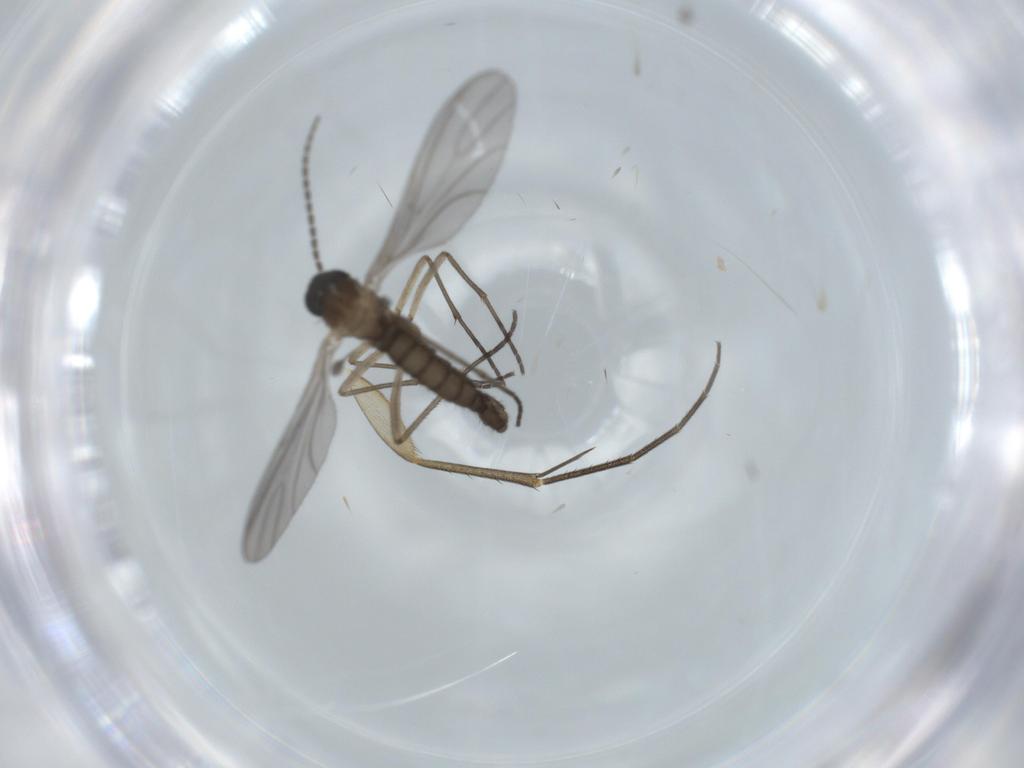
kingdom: Animalia
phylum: Arthropoda
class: Insecta
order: Diptera
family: Sciaridae
